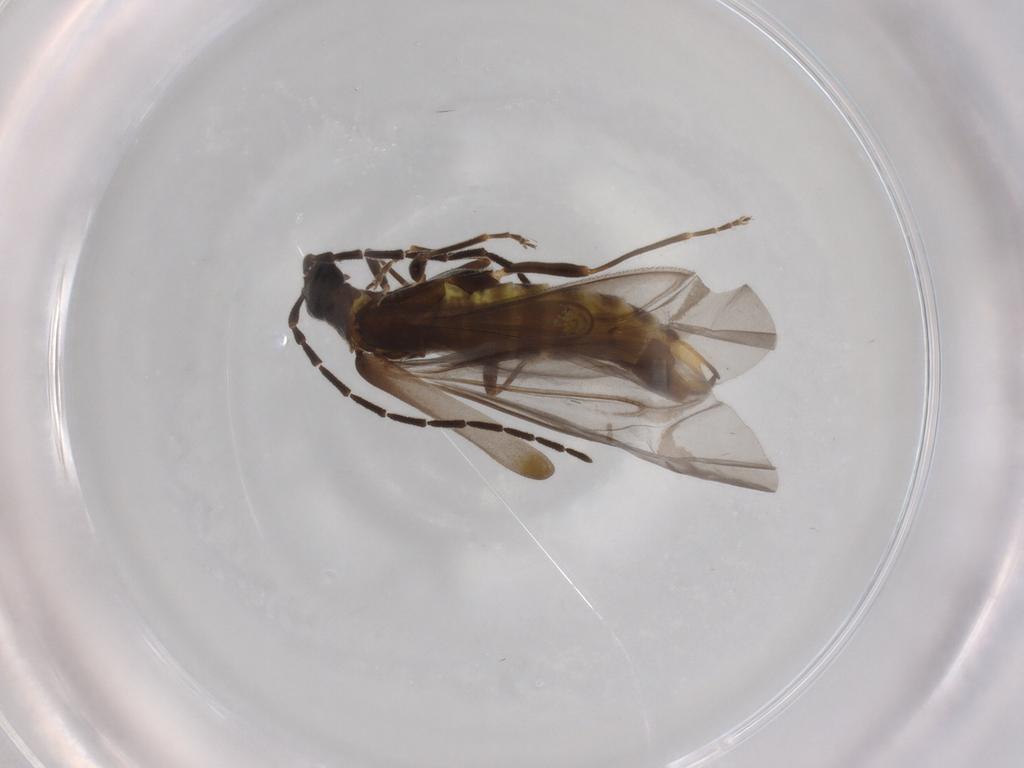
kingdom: Animalia
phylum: Arthropoda
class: Insecta
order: Coleoptera
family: Cantharidae
